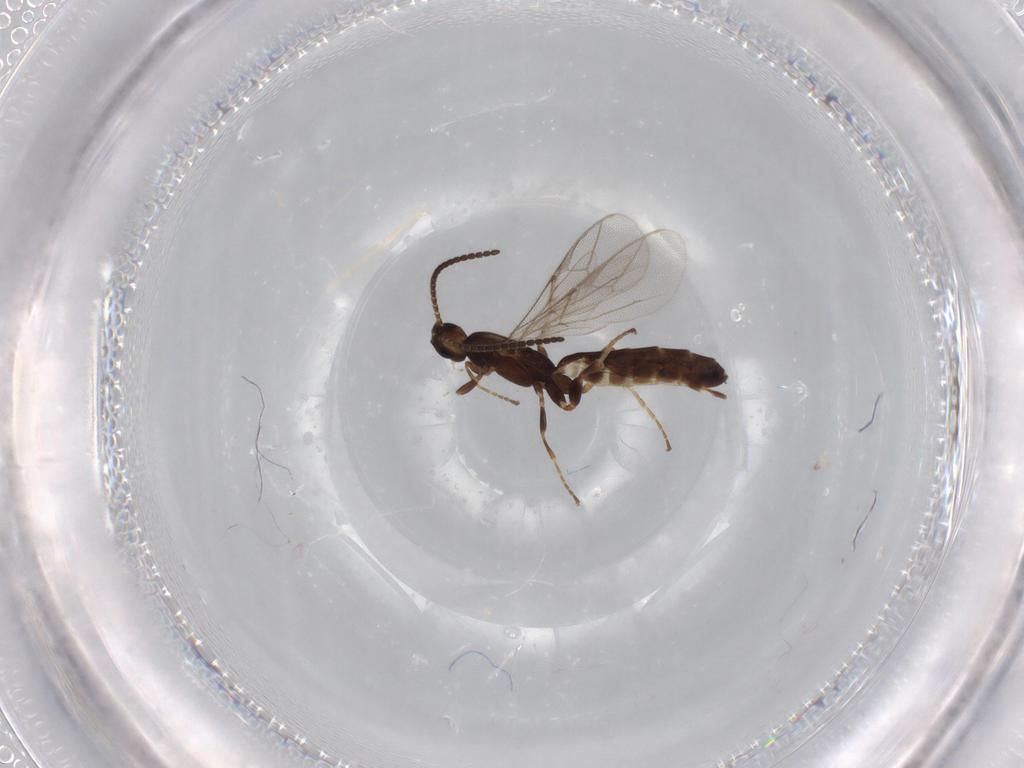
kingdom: Animalia
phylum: Arthropoda
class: Insecta
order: Hymenoptera
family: Ichneumonidae
